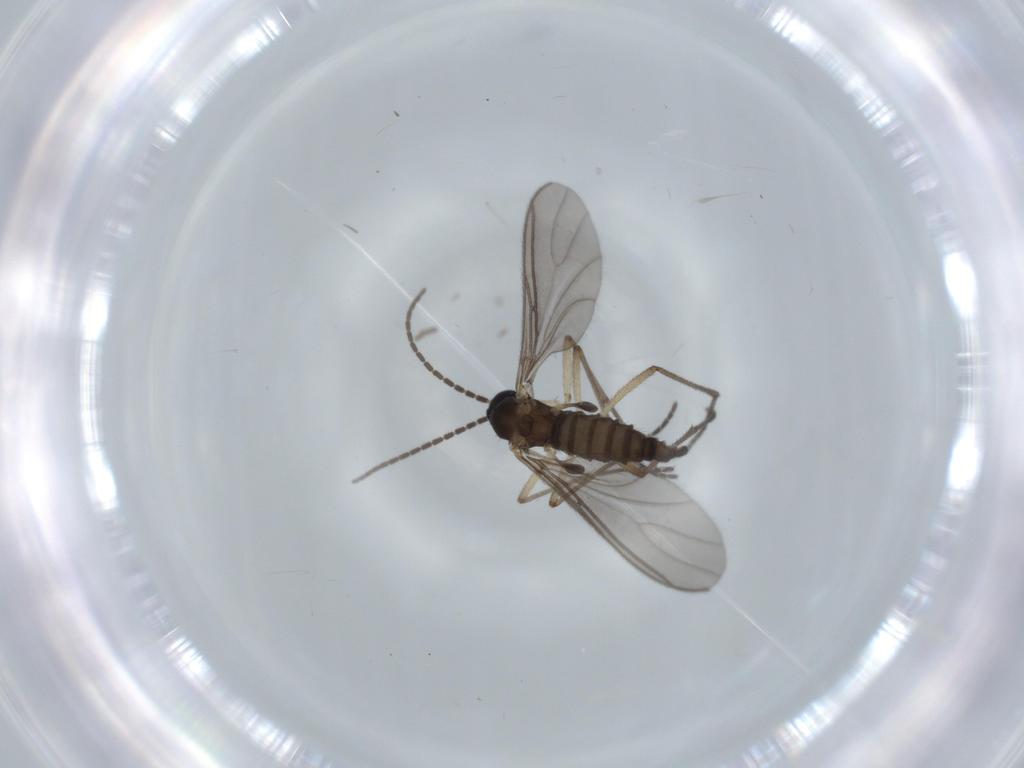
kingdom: Animalia
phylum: Arthropoda
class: Insecta
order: Diptera
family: Sciaridae
